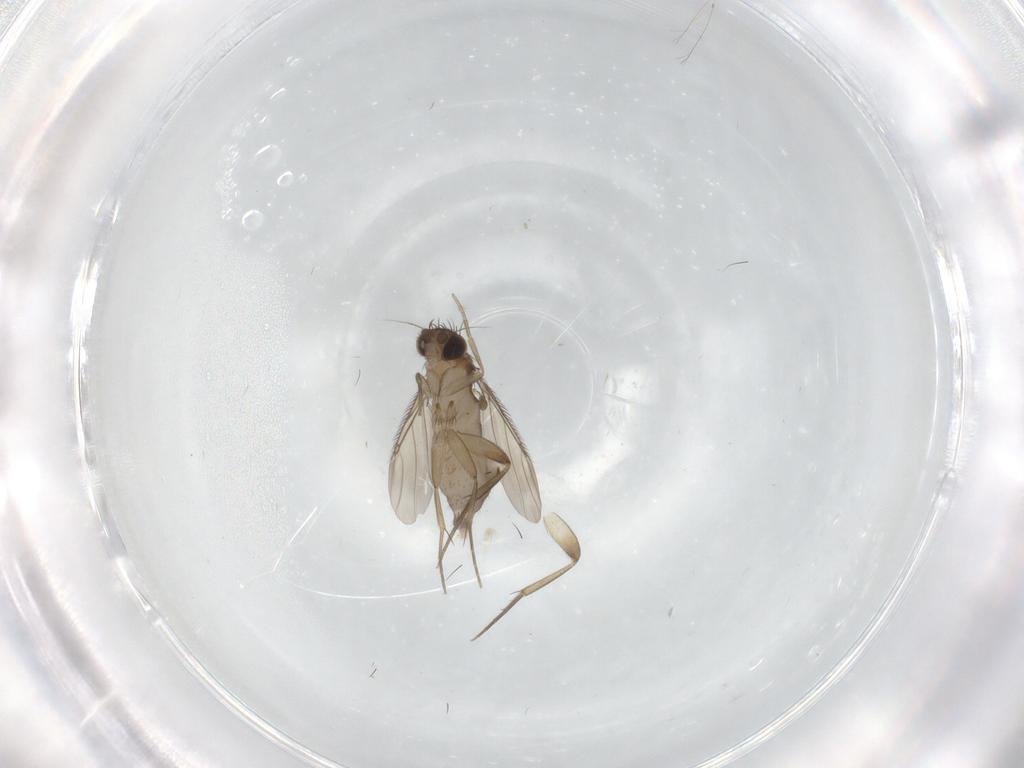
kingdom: Animalia
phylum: Arthropoda
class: Insecta
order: Diptera
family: Phoridae
